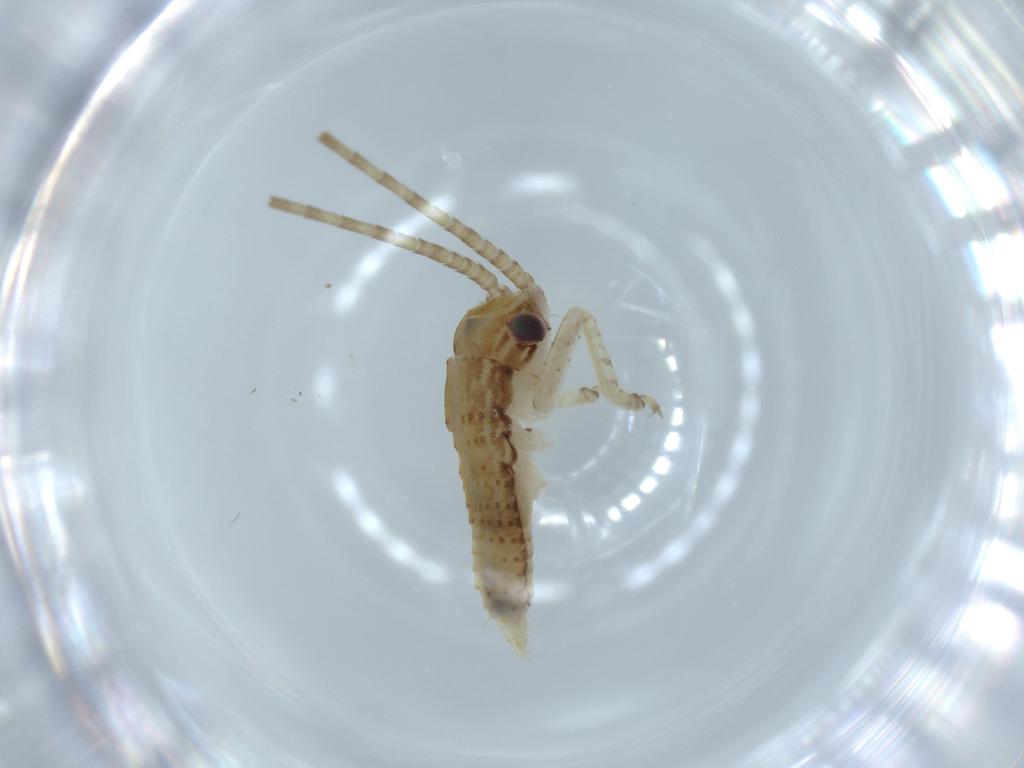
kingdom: Animalia
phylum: Arthropoda
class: Insecta
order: Orthoptera
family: Gryllidae
